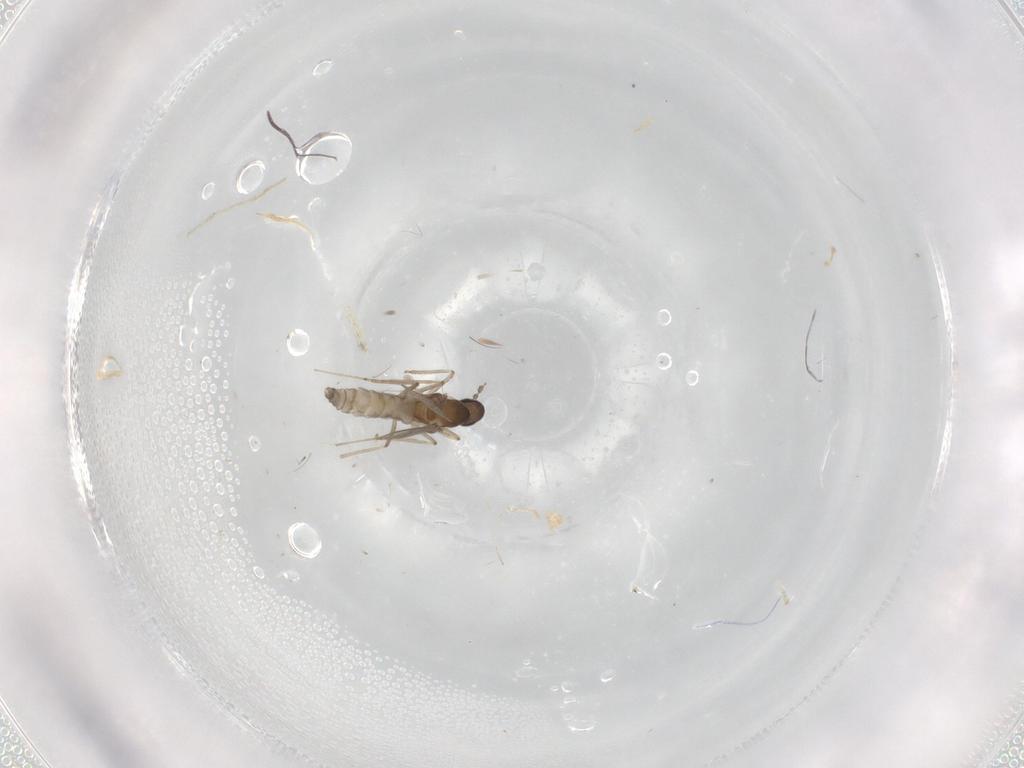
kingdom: Animalia
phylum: Arthropoda
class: Insecta
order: Diptera
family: Cecidomyiidae
